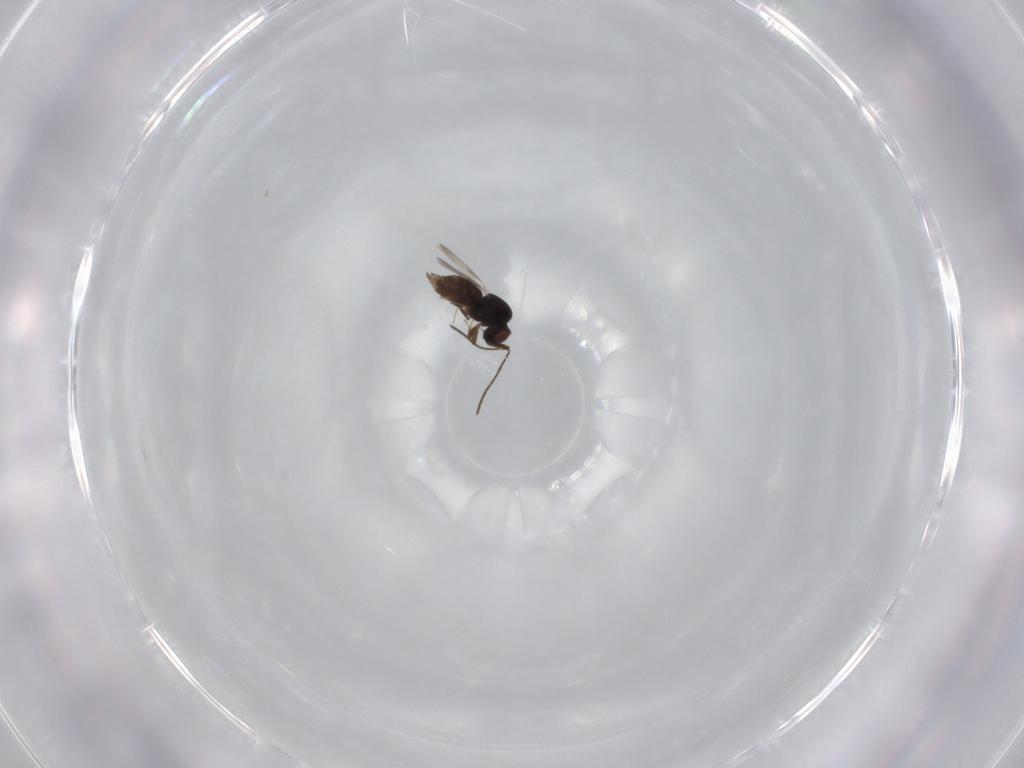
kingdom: Animalia
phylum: Arthropoda
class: Insecta
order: Hymenoptera
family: Ceraphronidae
